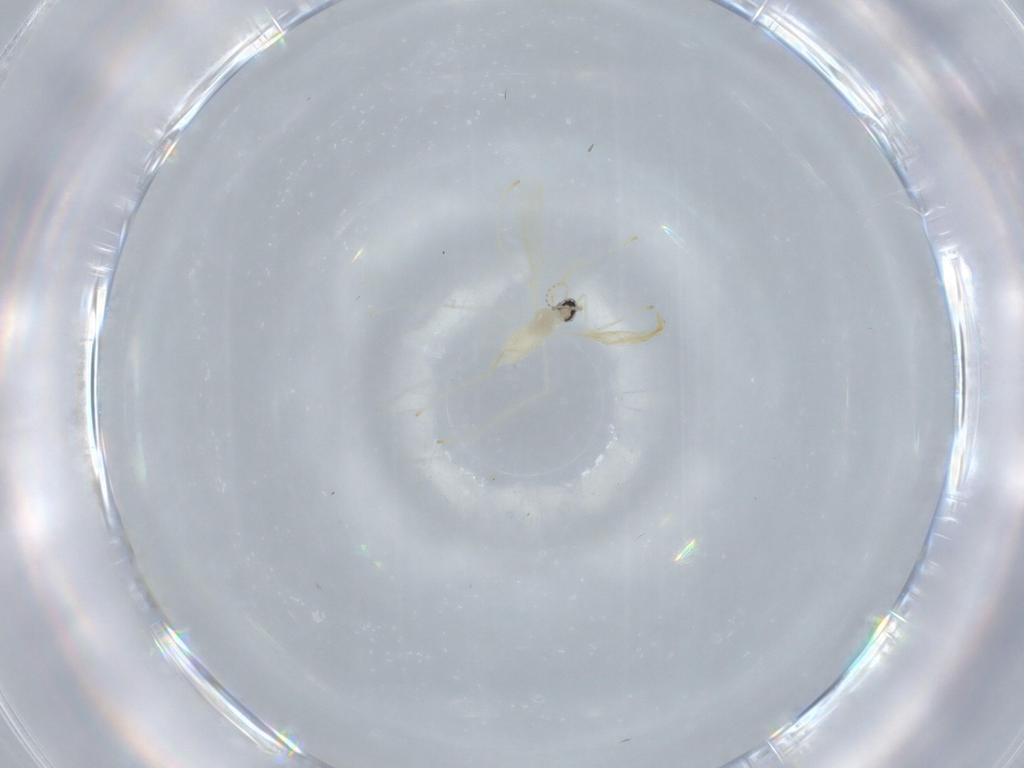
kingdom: Animalia
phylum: Arthropoda
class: Insecta
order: Diptera
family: Cecidomyiidae
